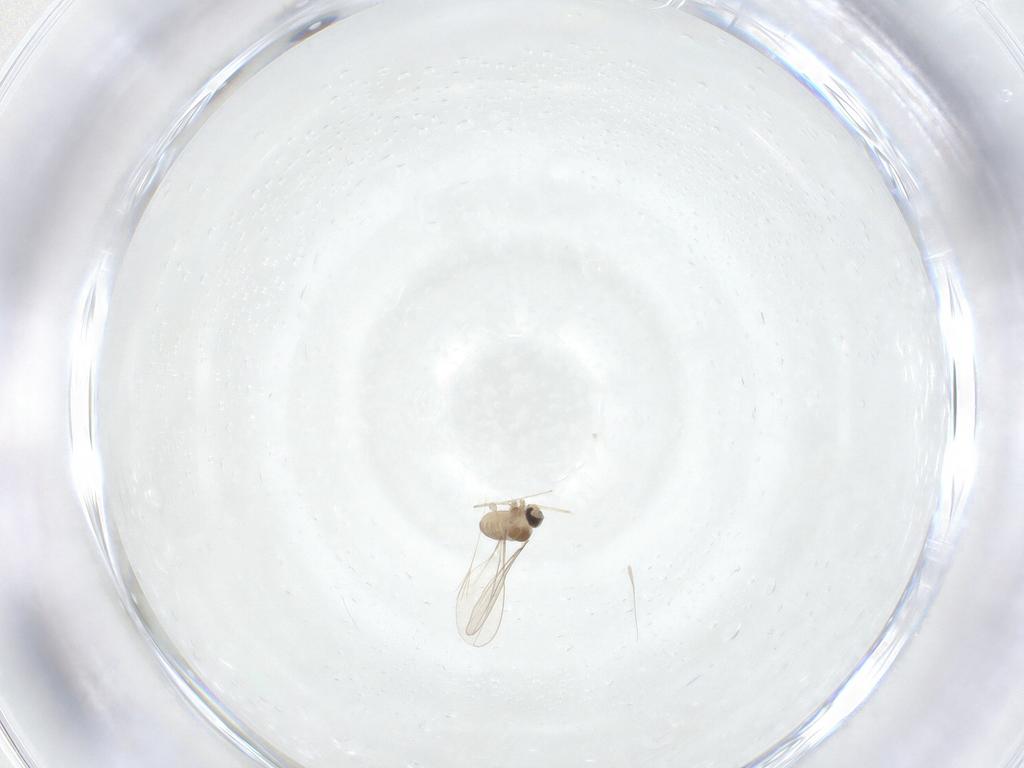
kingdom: Animalia
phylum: Arthropoda
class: Insecta
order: Diptera
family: Cecidomyiidae
